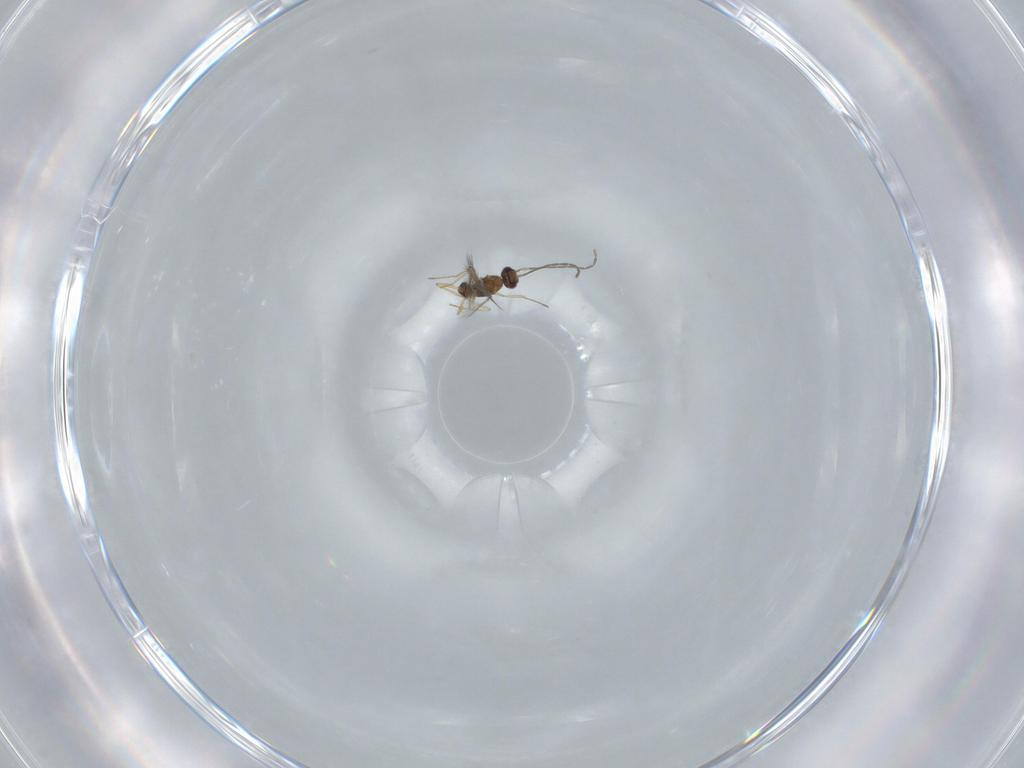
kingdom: Animalia
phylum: Arthropoda
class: Insecta
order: Hymenoptera
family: Mymaridae
